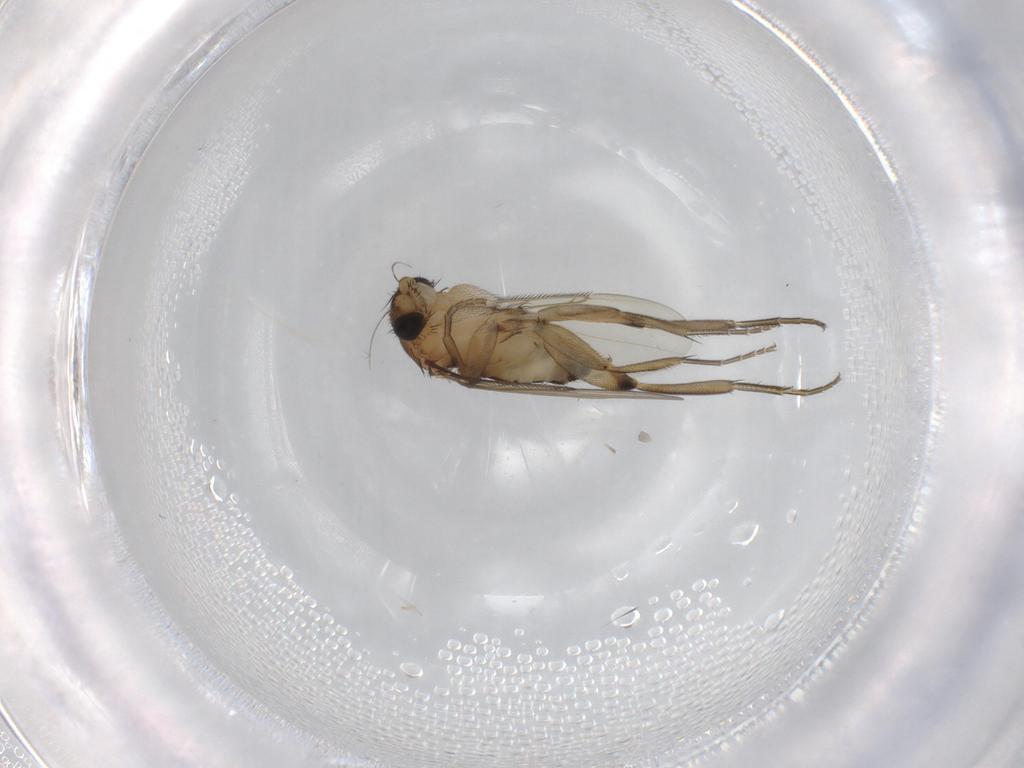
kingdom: Animalia
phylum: Arthropoda
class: Insecta
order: Diptera
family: Phoridae
